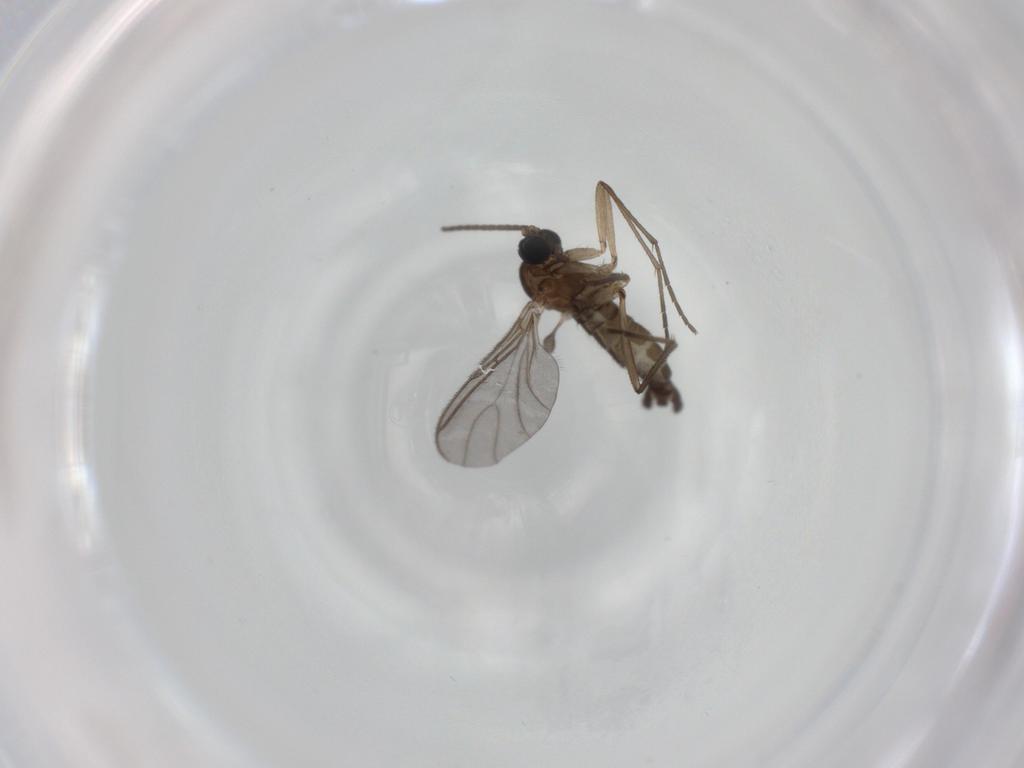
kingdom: Animalia
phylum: Arthropoda
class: Insecta
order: Diptera
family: Sciaridae
